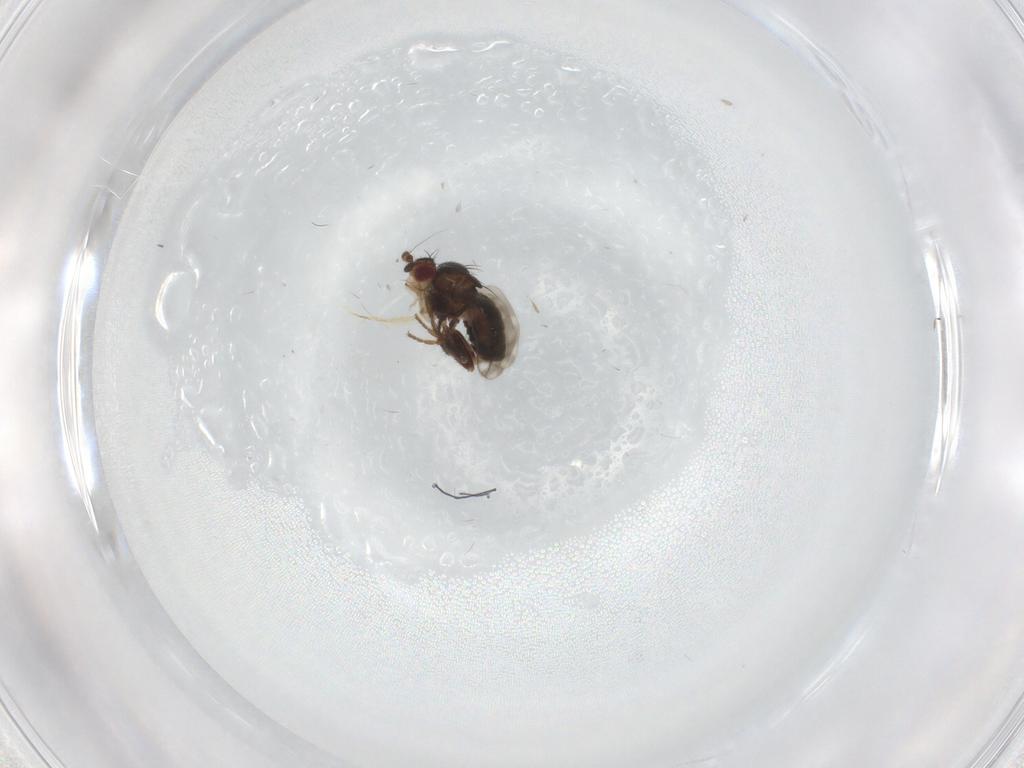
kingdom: Animalia
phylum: Arthropoda
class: Insecta
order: Diptera
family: Sphaeroceridae
